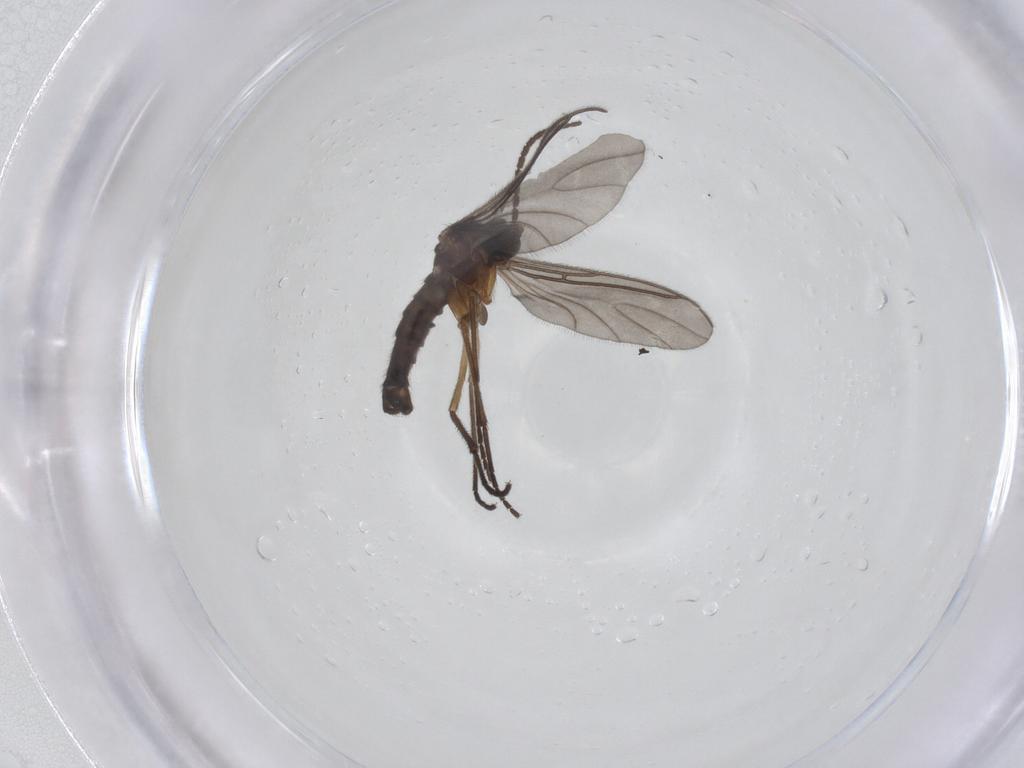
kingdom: Animalia
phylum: Arthropoda
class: Insecta
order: Diptera
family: Sciaridae
